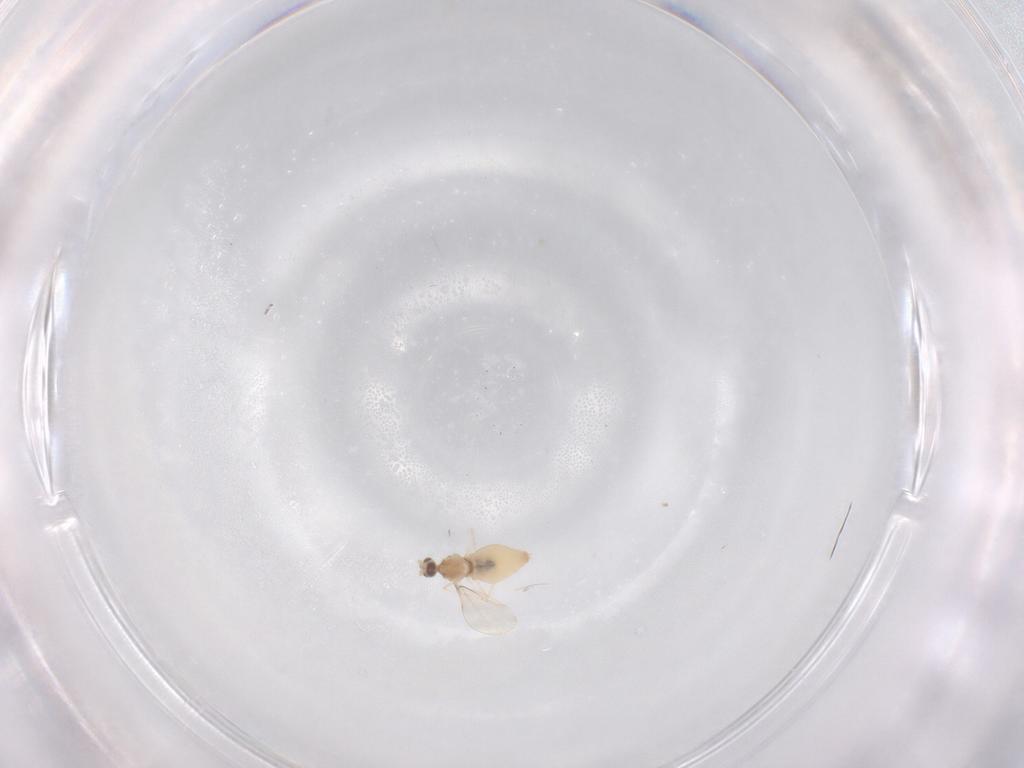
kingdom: Animalia
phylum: Arthropoda
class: Insecta
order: Diptera
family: Cecidomyiidae
